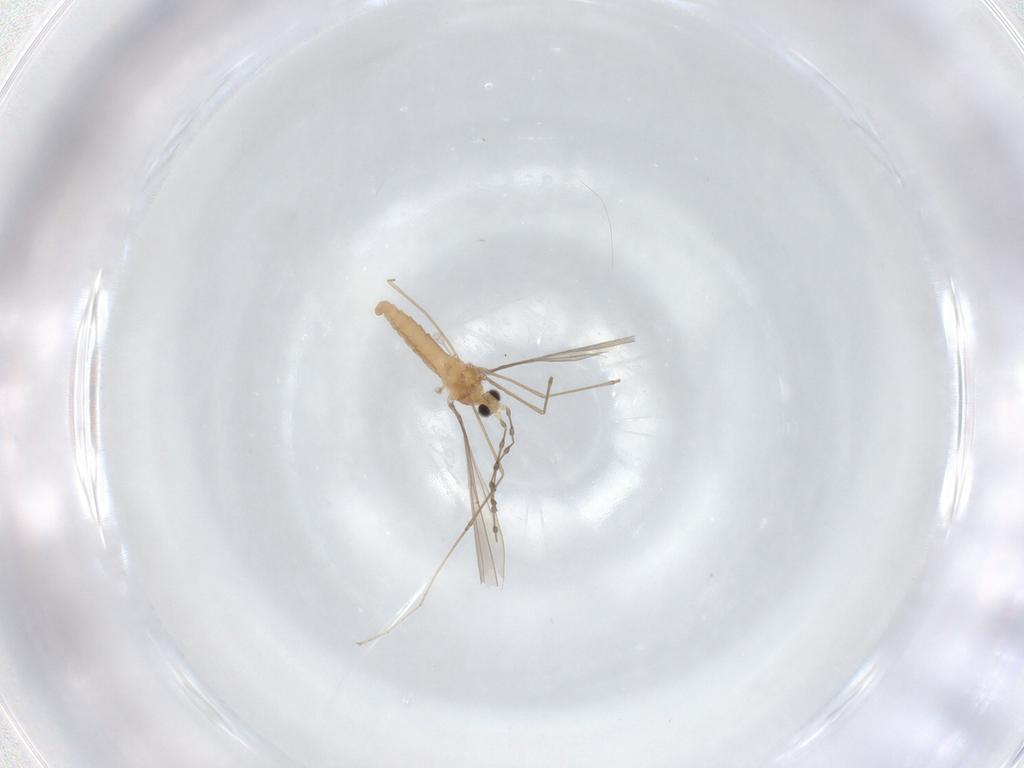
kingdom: Animalia
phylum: Arthropoda
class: Insecta
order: Diptera
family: Cecidomyiidae
